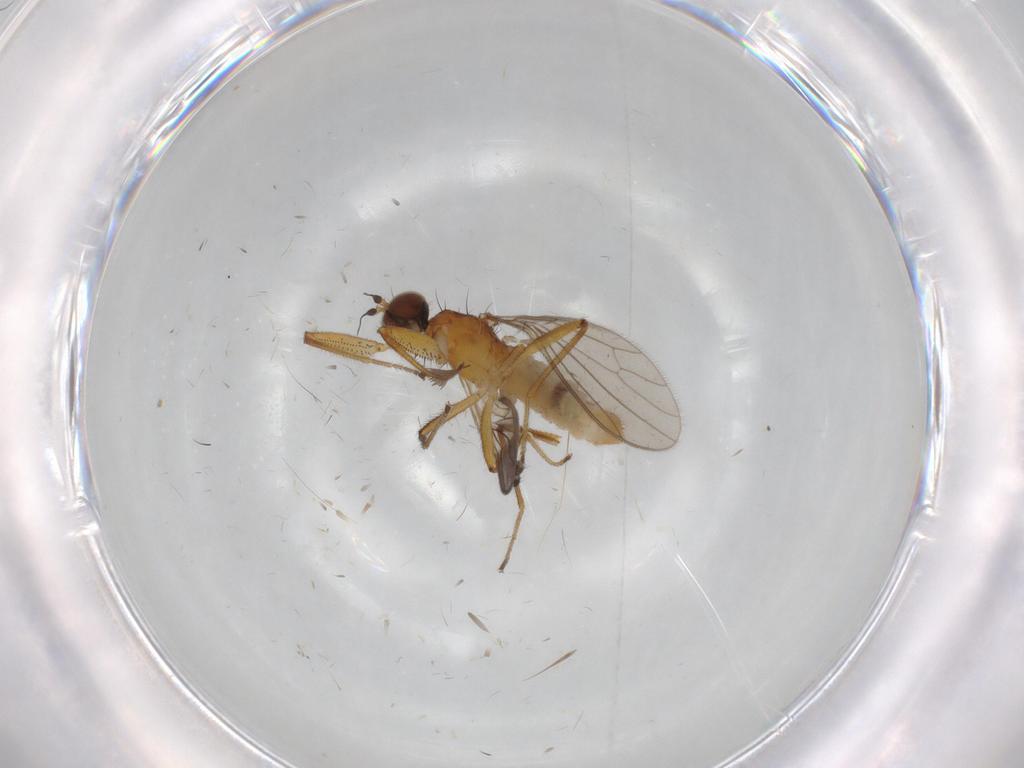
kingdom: Animalia
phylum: Arthropoda
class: Insecta
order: Diptera
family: Empididae
